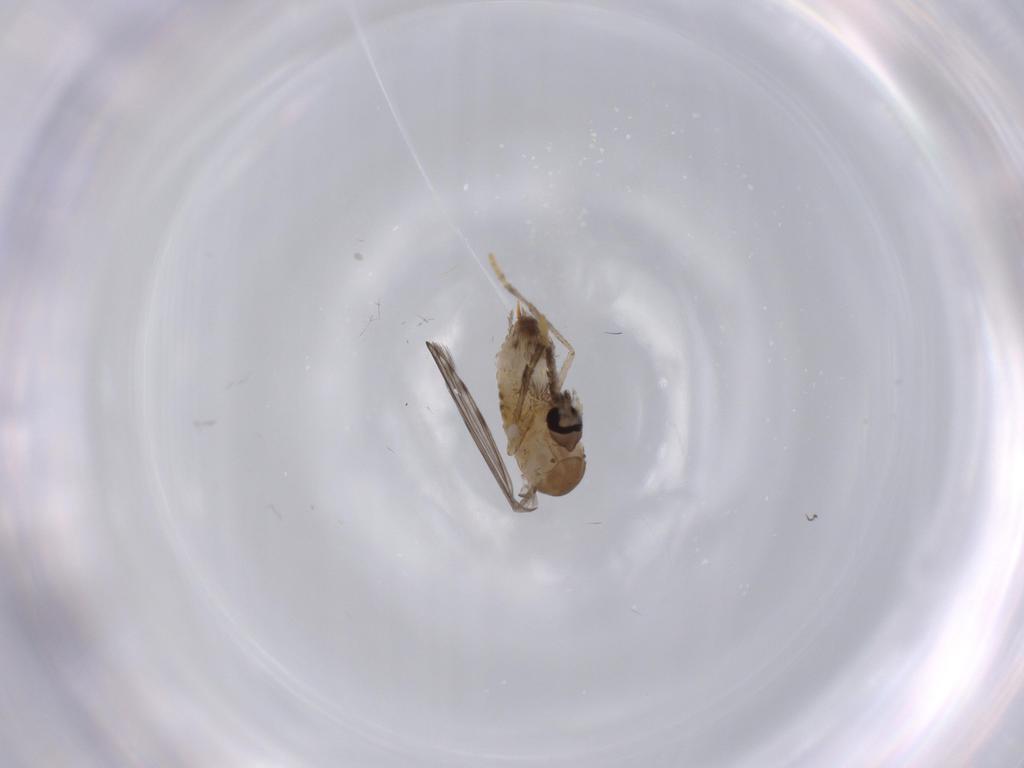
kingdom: Animalia
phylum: Arthropoda
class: Insecta
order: Diptera
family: Psychodidae
